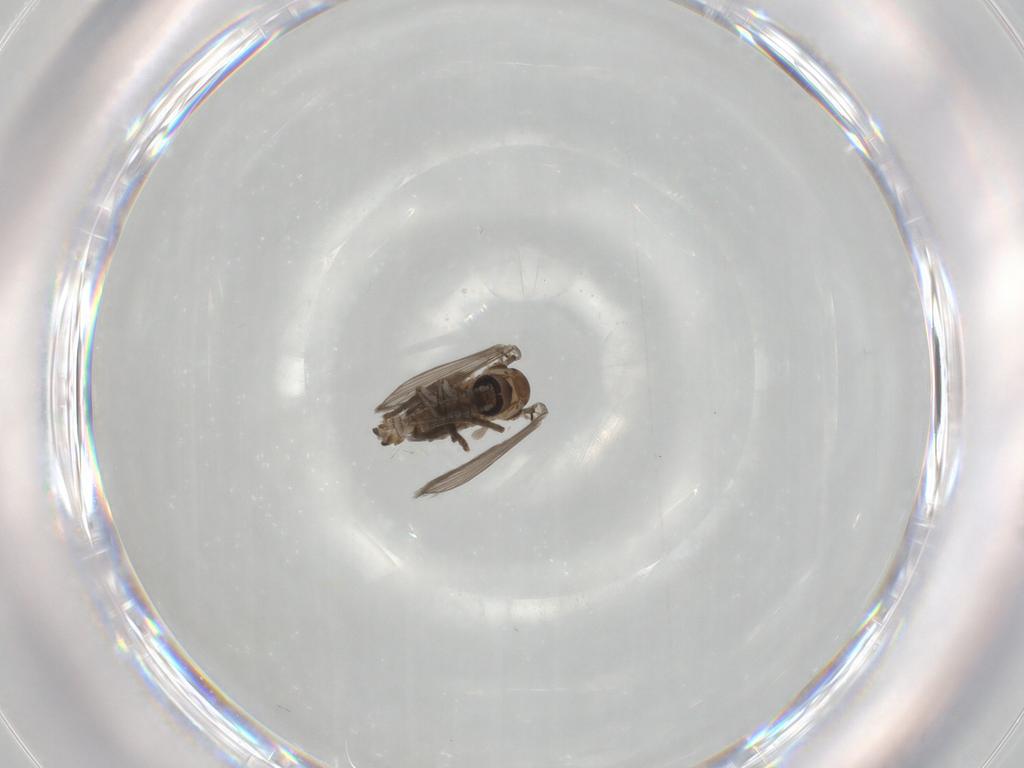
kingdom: Animalia
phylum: Arthropoda
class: Insecta
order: Diptera
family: Psychodidae
